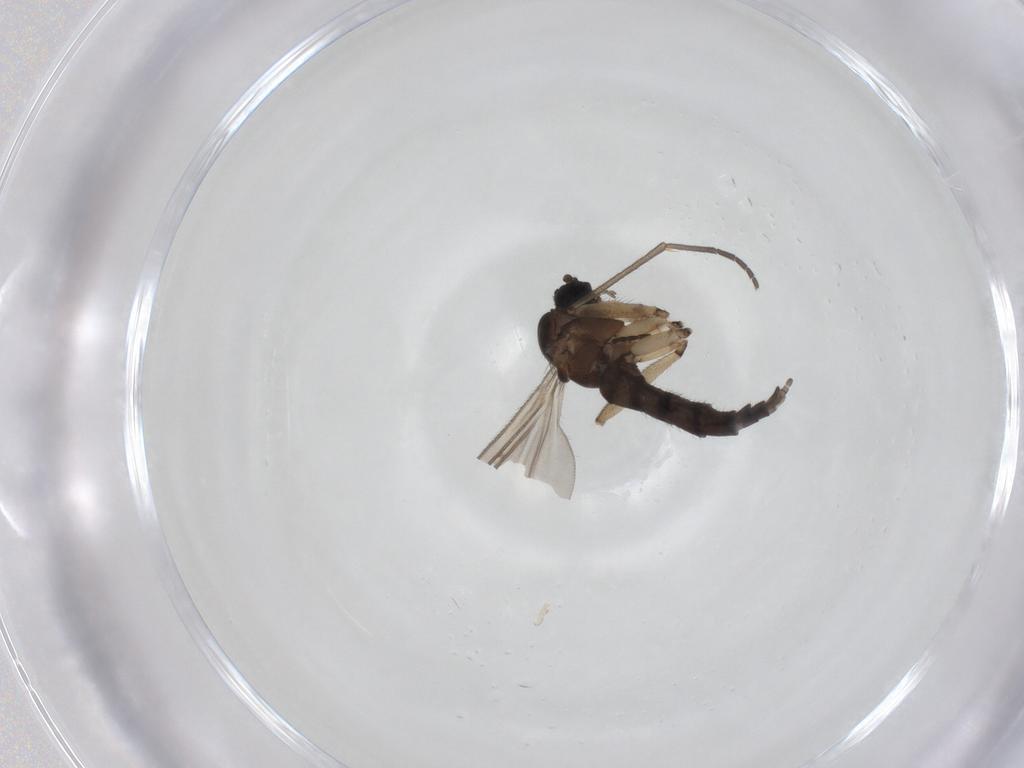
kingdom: Animalia
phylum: Arthropoda
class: Insecta
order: Diptera
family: Sciaridae
